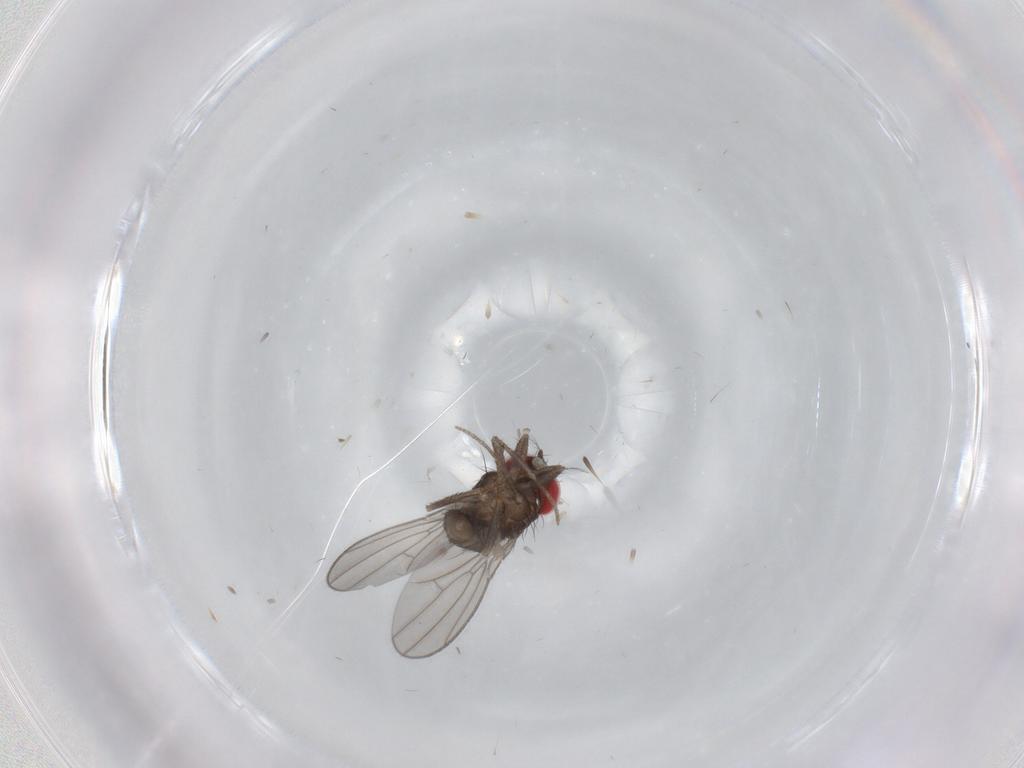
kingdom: Animalia
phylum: Arthropoda
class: Insecta
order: Diptera
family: Drosophilidae
